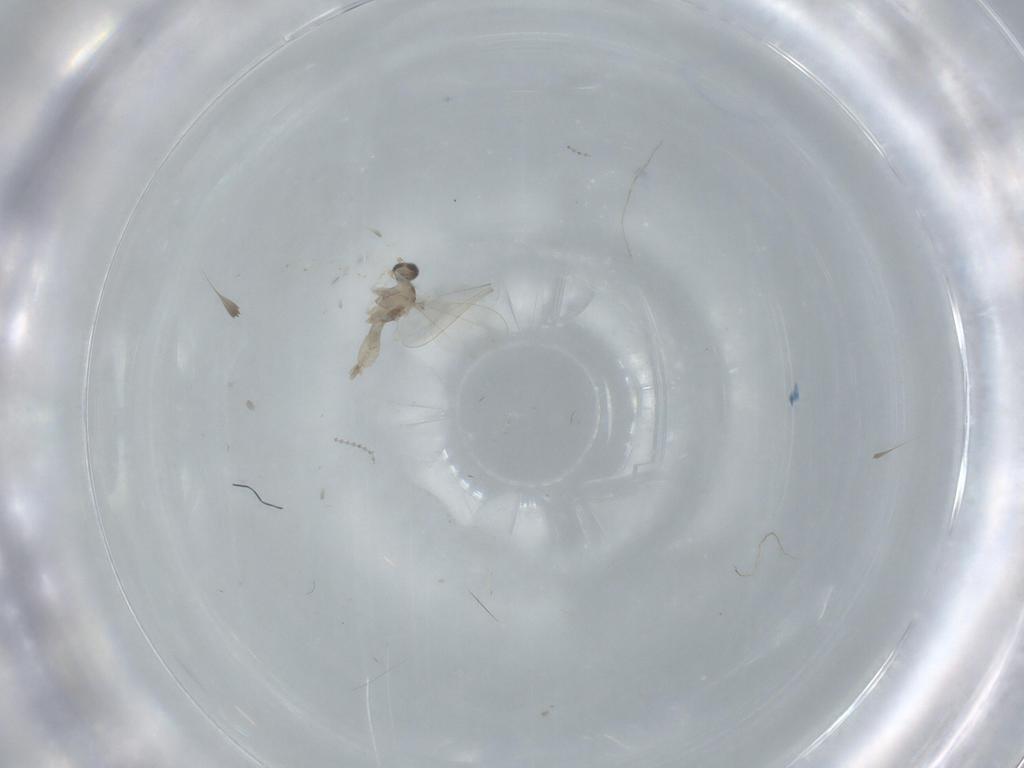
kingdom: Animalia
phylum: Arthropoda
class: Insecta
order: Diptera
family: Cecidomyiidae
